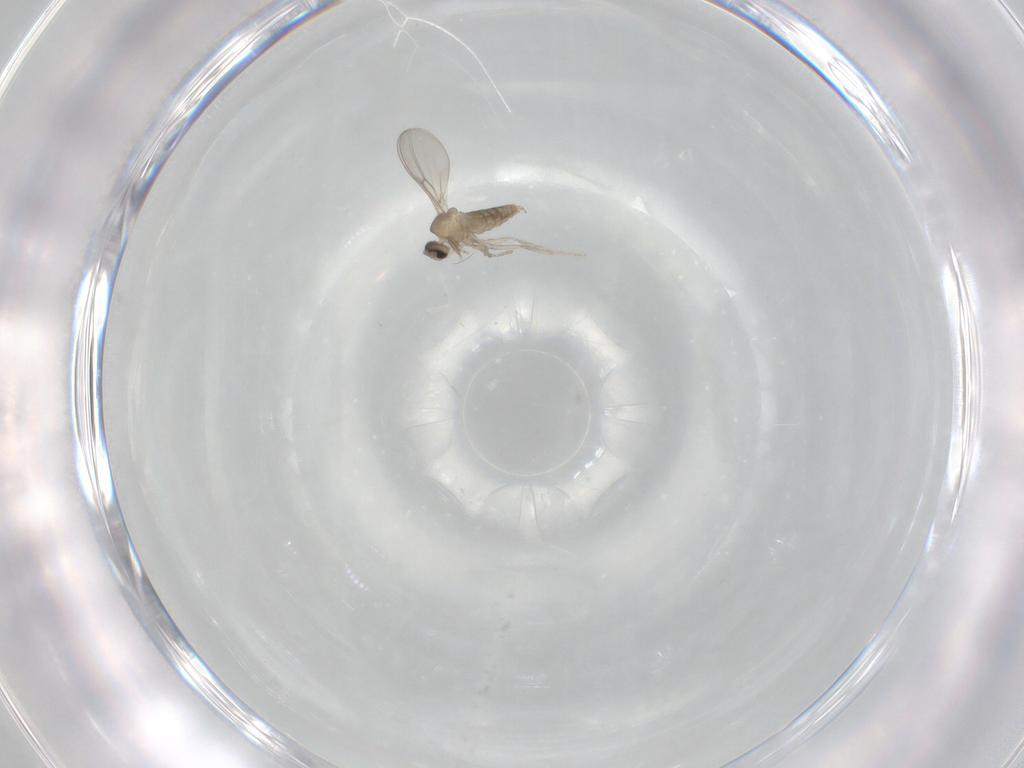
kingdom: Animalia
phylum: Arthropoda
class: Insecta
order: Diptera
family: Cecidomyiidae
